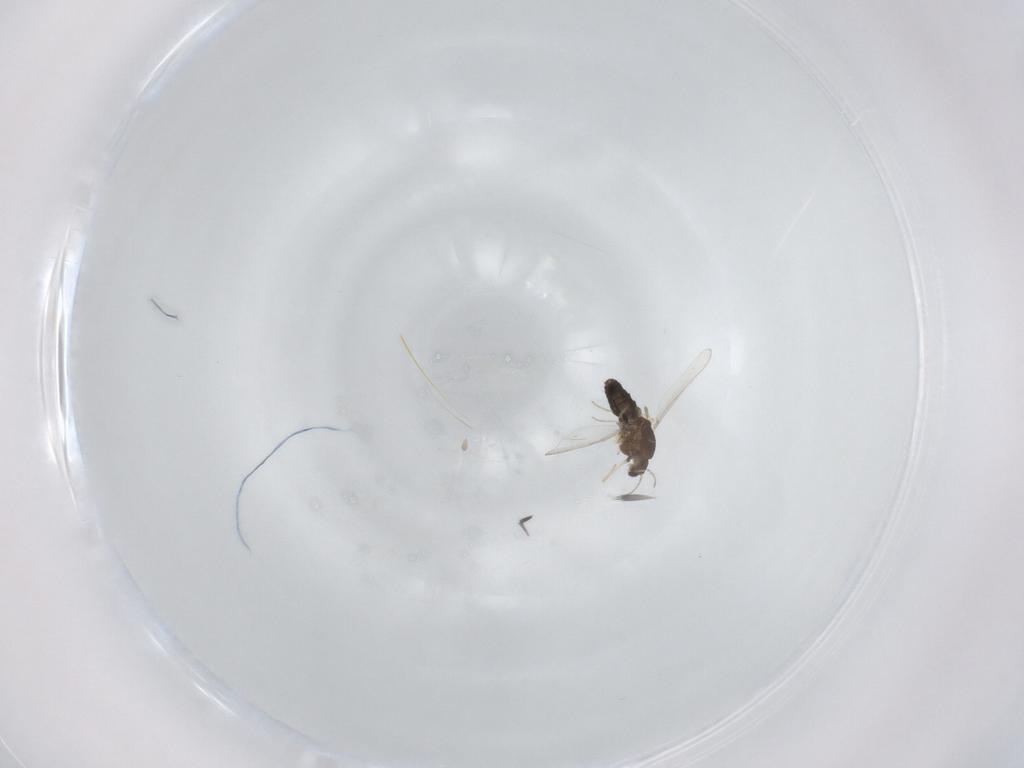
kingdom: Animalia
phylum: Arthropoda
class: Insecta
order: Diptera
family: Chironomidae
